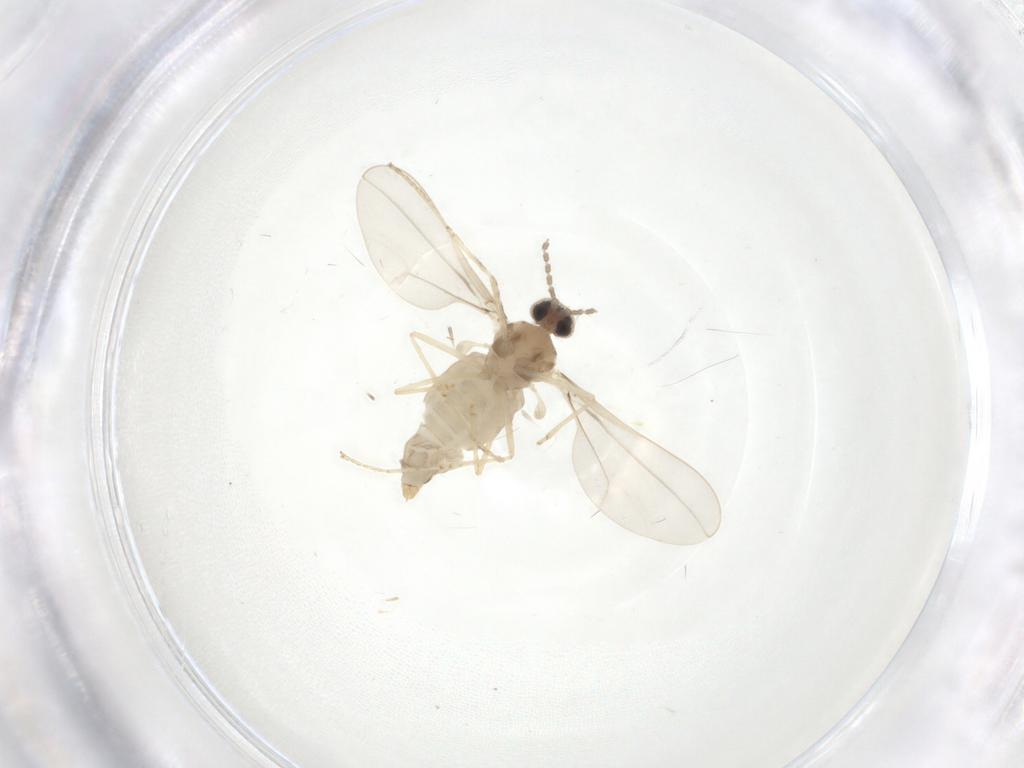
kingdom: Animalia
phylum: Arthropoda
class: Insecta
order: Diptera
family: Cecidomyiidae
